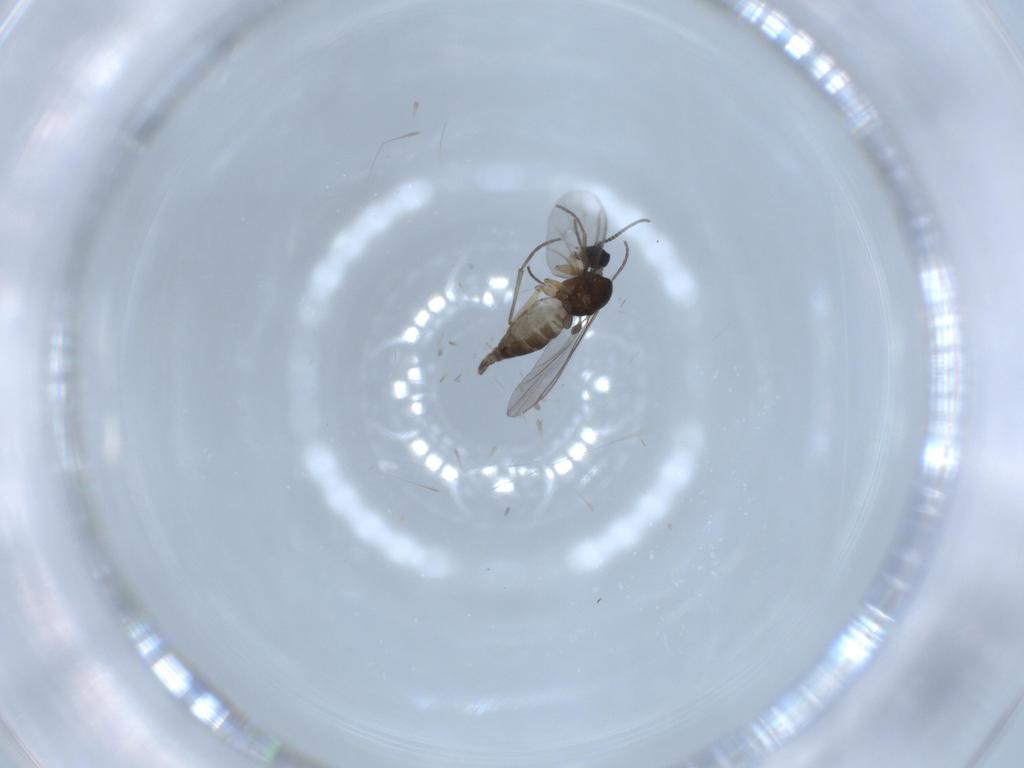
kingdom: Animalia
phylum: Arthropoda
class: Insecta
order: Diptera
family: Sciaridae
